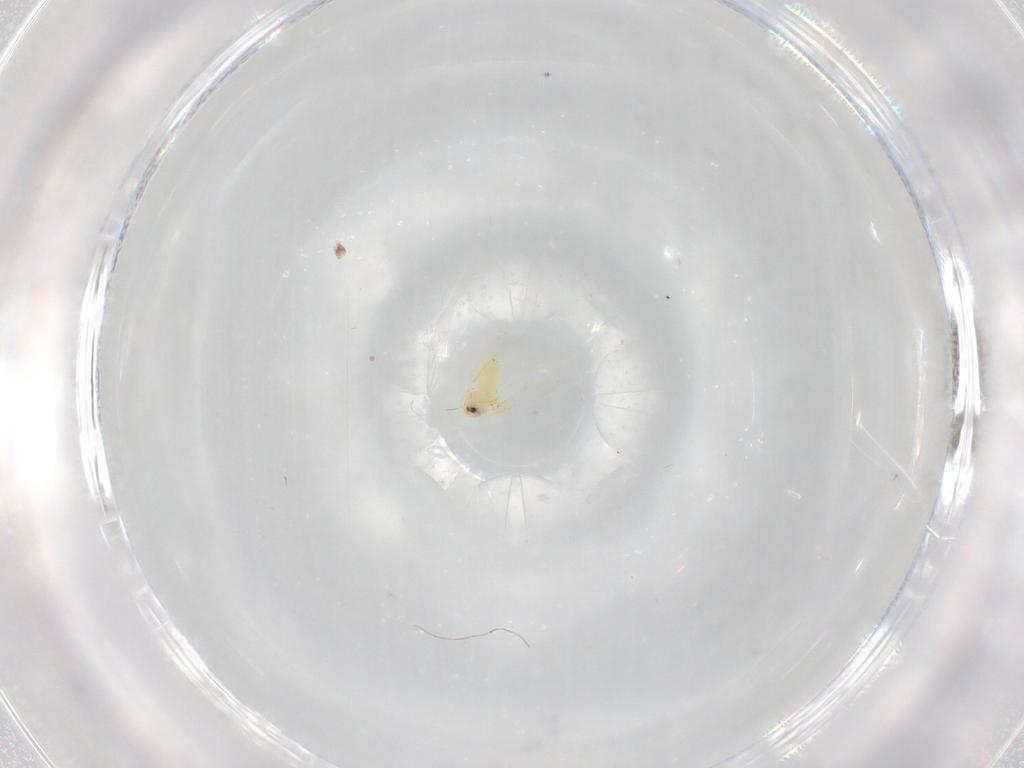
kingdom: Animalia
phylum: Arthropoda
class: Insecta
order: Hemiptera
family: Aleyrodidae
